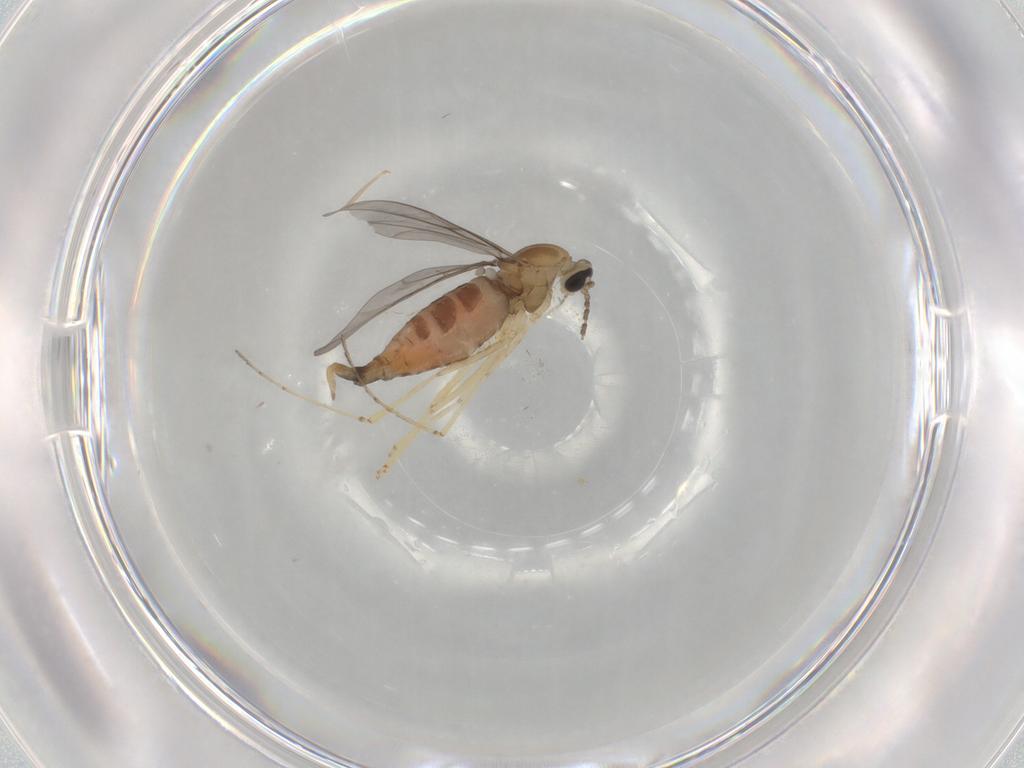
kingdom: Animalia
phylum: Arthropoda
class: Insecta
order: Diptera
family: Cecidomyiidae
